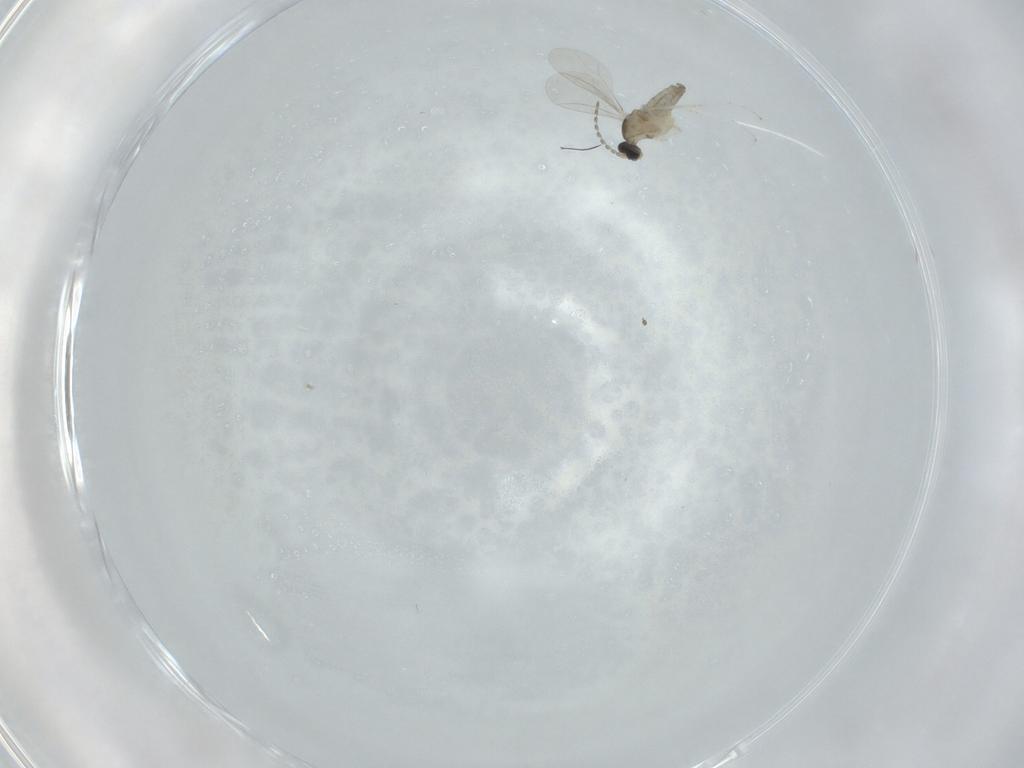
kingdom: Animalia
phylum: Arthropoda
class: Insecta
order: Diptera
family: Cecidomyiidae
